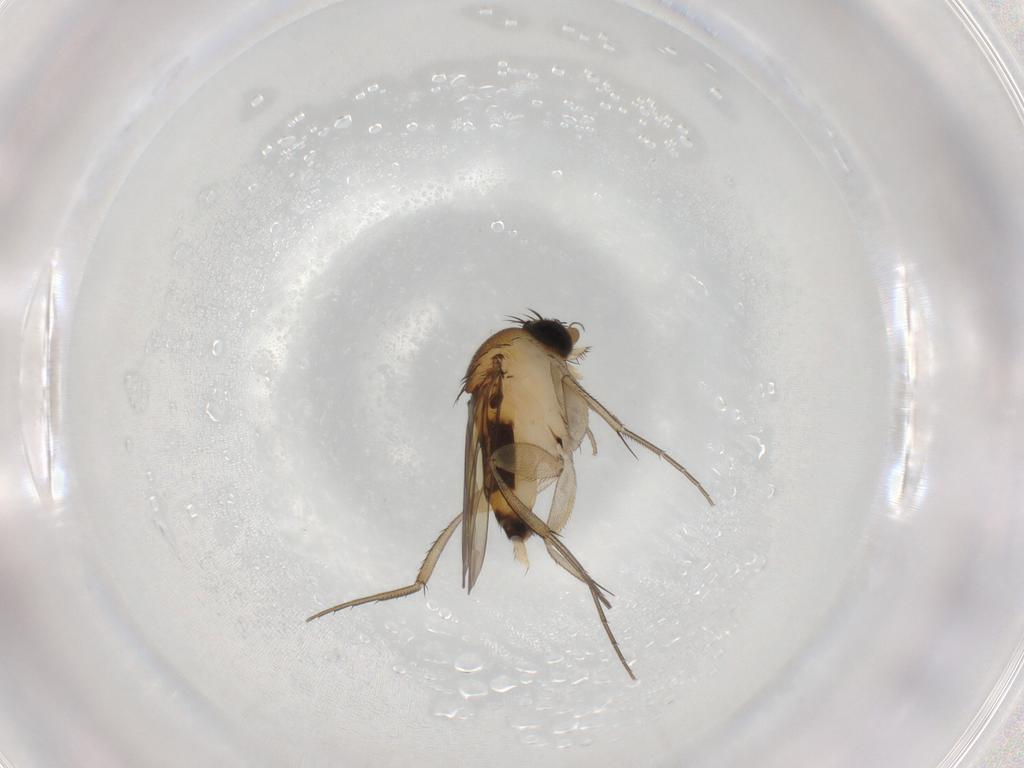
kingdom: Animalia
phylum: Arthropoda
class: Insecta
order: Diptera
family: Phoridae
